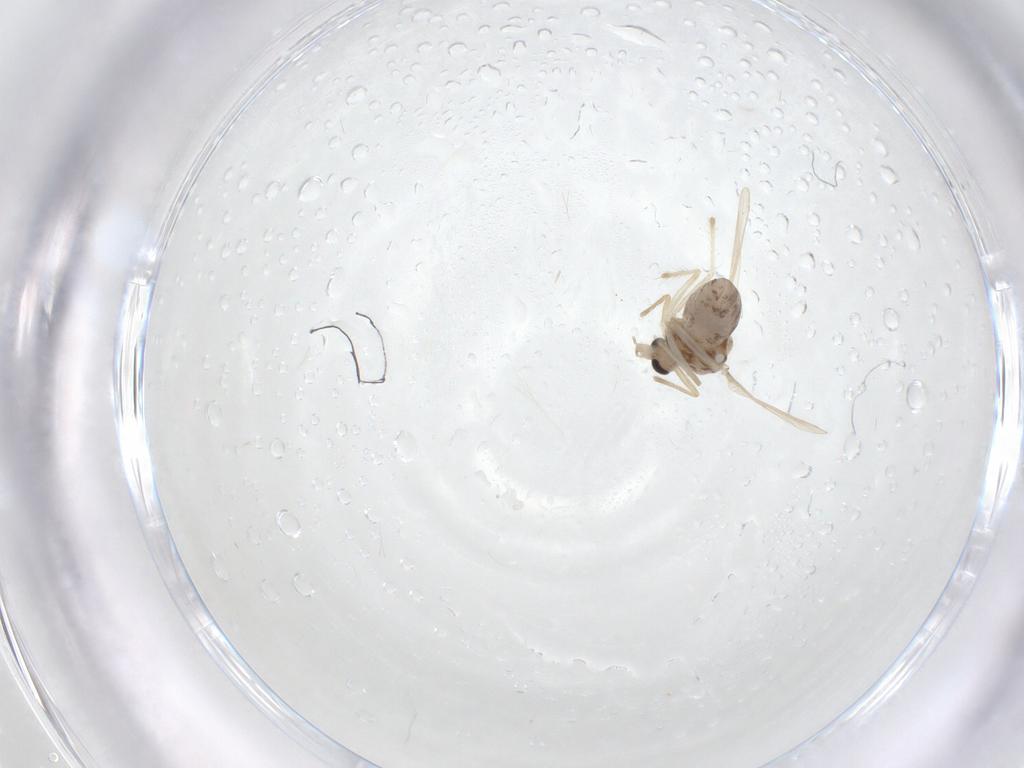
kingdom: Animalia
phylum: Arthropoda
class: Insecta
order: Diptera
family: Chironomidae
